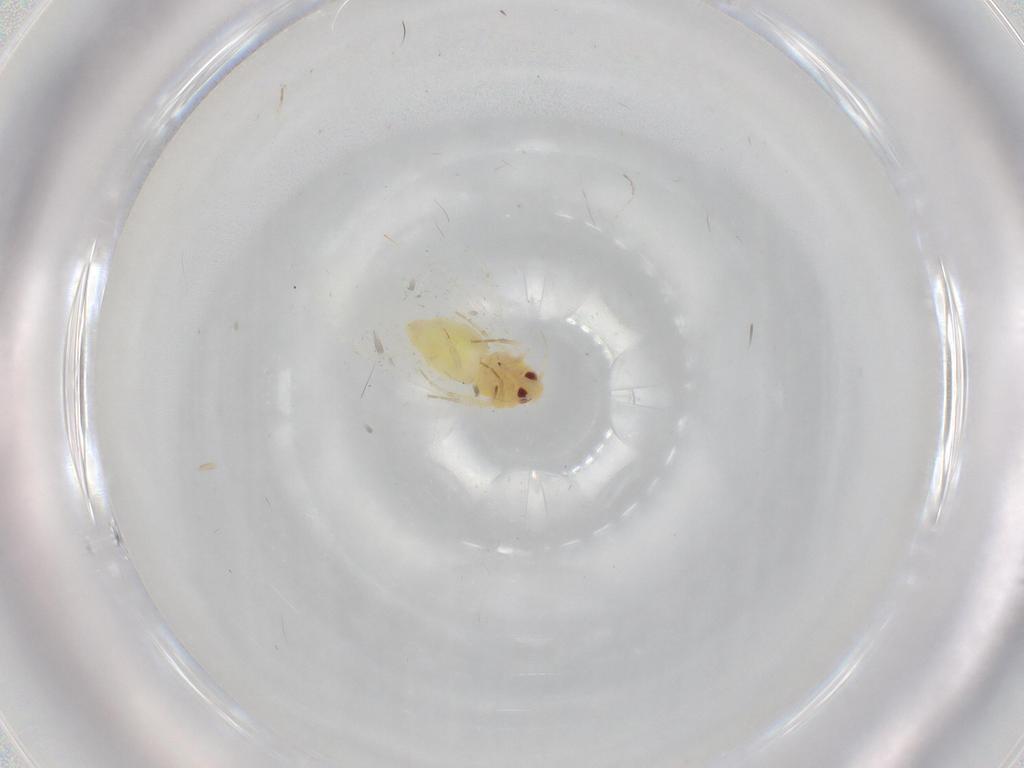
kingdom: Animalia
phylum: Arthropoda
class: Insecta
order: Hemiptera
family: Aleyrodidae
